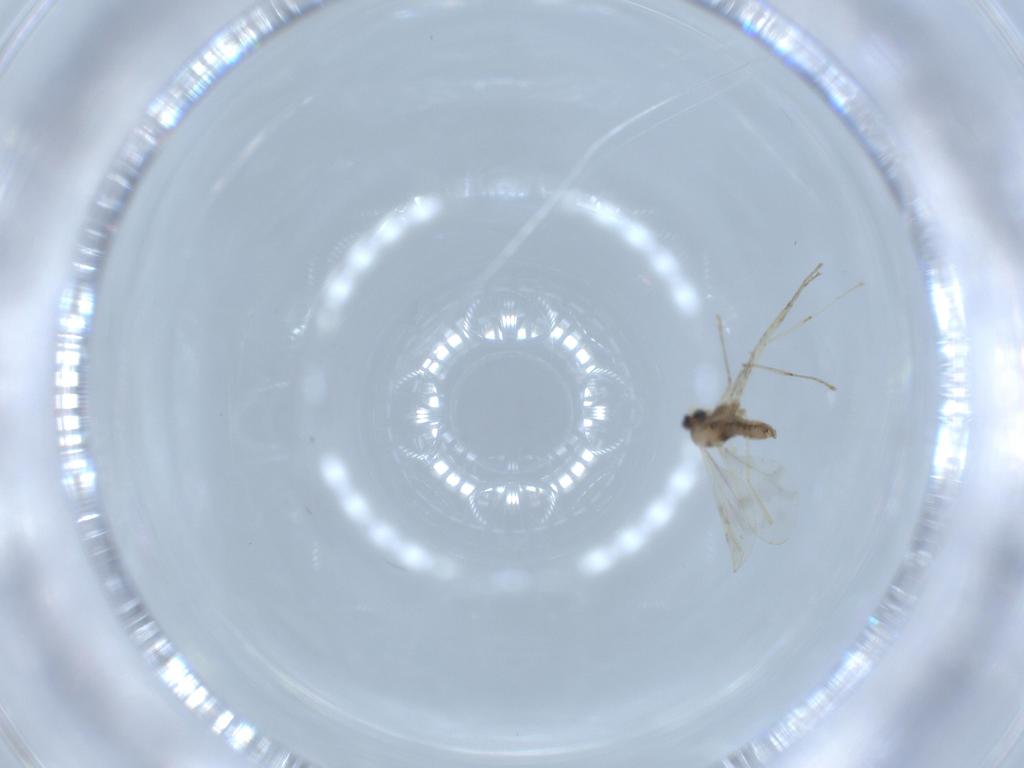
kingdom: Animalia
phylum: Arthropoda
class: Insecta
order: Diptera
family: Cecidomyiidae
